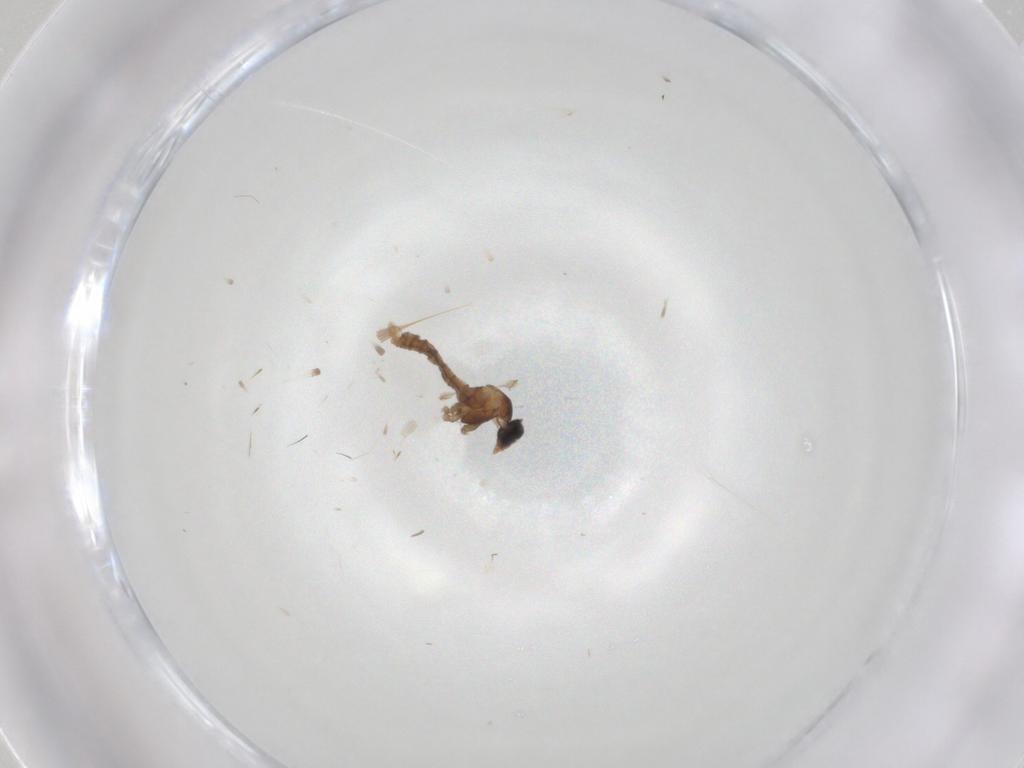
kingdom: Animalia
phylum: Arthropoda
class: Insecta
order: Diptera
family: Cecidomyiidae
